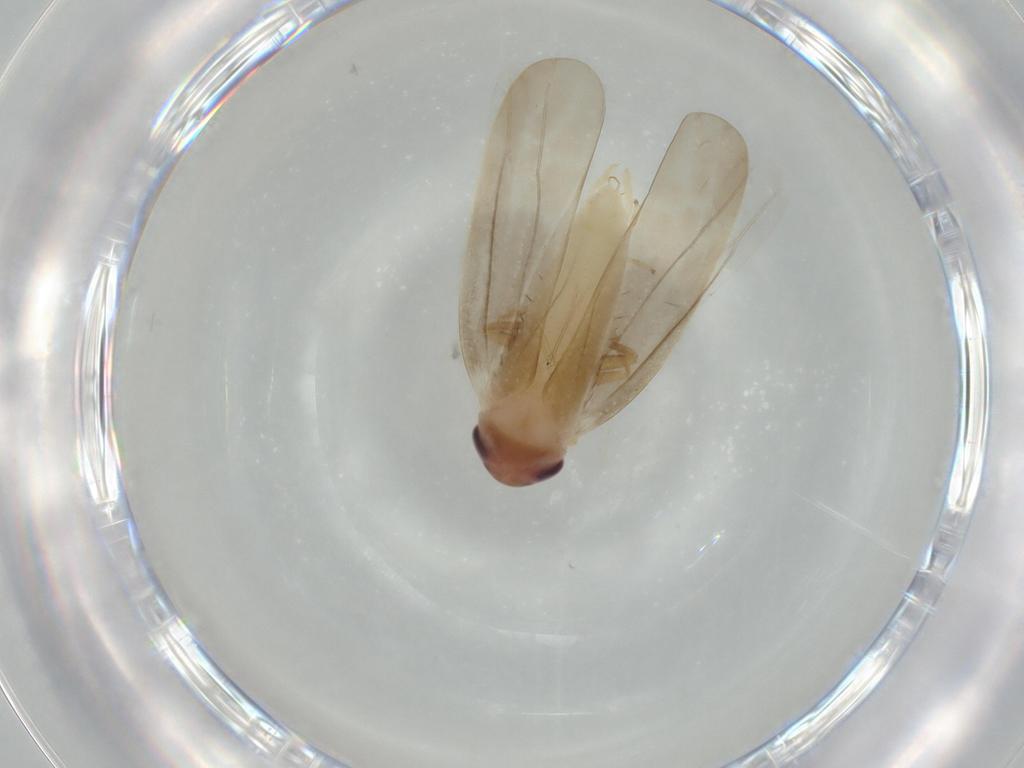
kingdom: Animalia
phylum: Arthropoda
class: Insecta
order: Hemiptera
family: Cicadellidae
